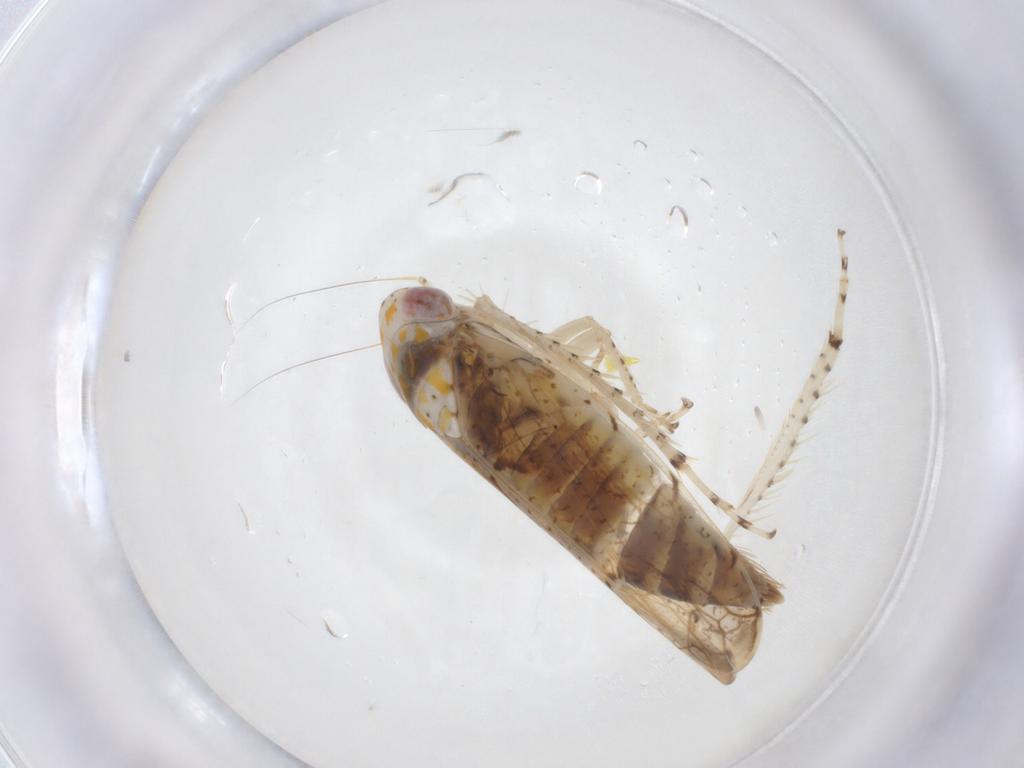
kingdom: Animalia
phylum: Arthropoda
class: Insecta
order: Hemiptera
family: Cicadellidae
